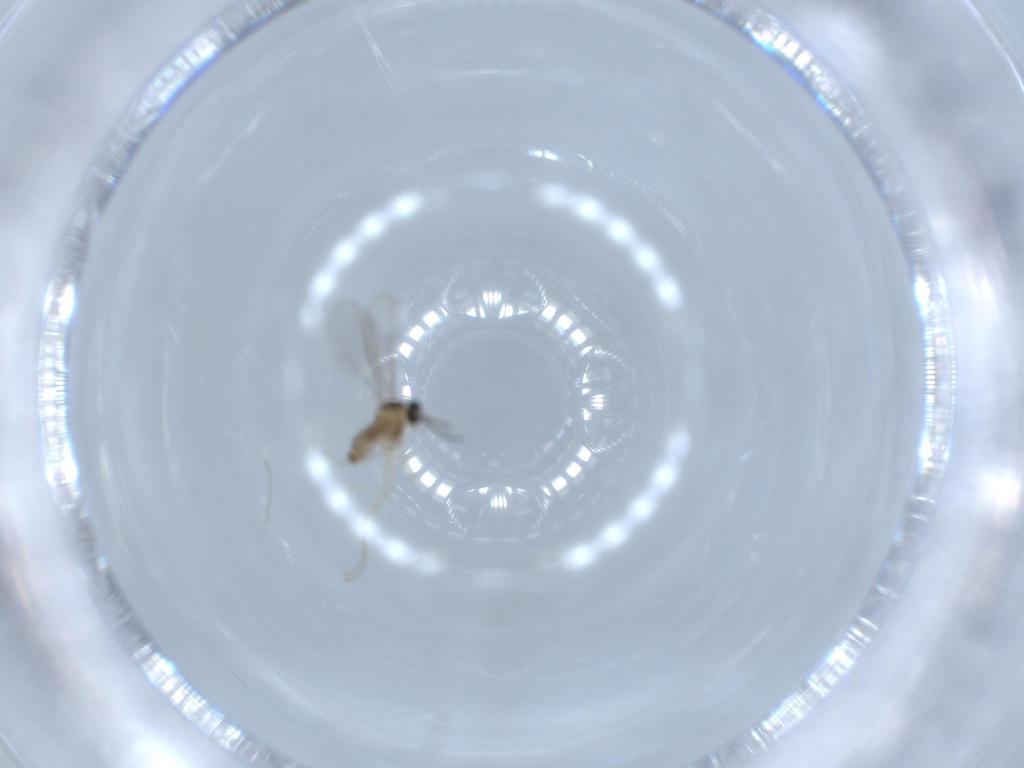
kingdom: Animalia
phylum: Arthropoda
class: Insecta
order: Diptera
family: Cecidomyiidae
